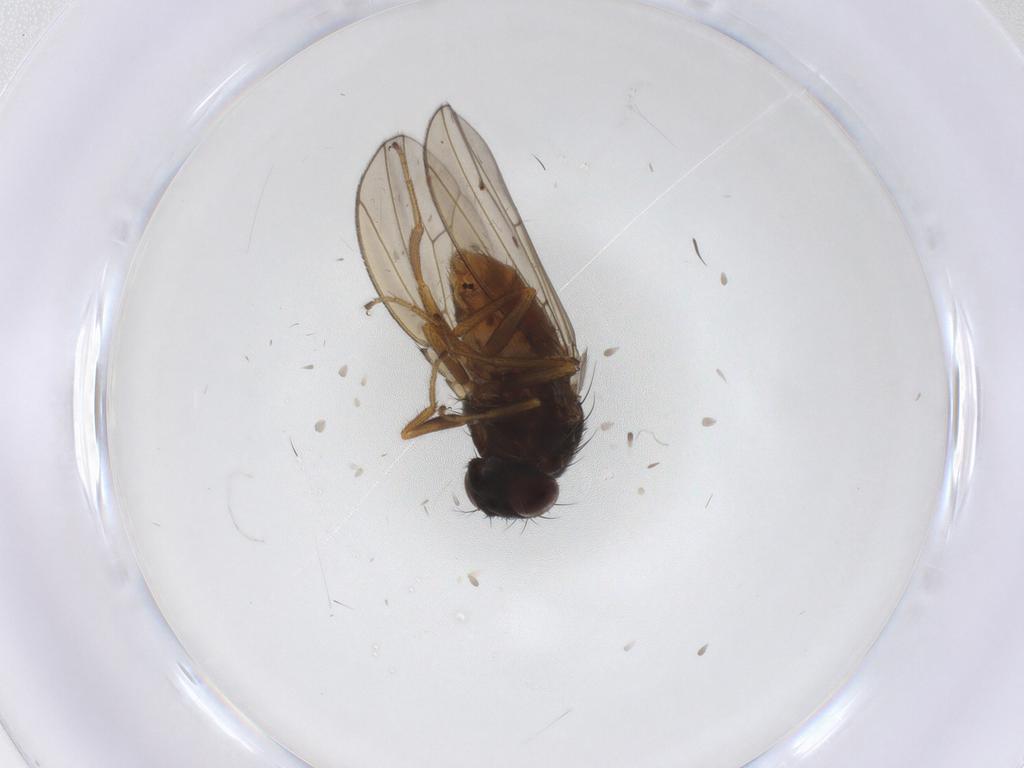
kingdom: Animalia
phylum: Arthropoda
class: Insecta
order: Diptera
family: Drosophilidae
